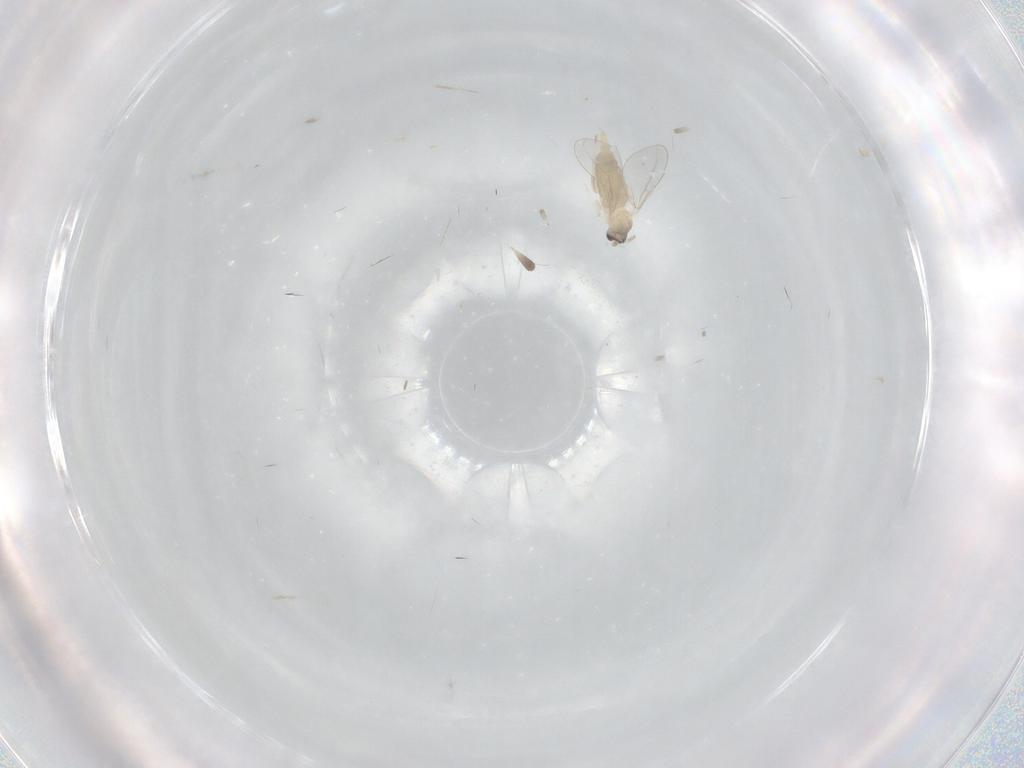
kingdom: Animalia
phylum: Arthropoda
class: Insecta
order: Diptera
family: Cecidomyiidae
